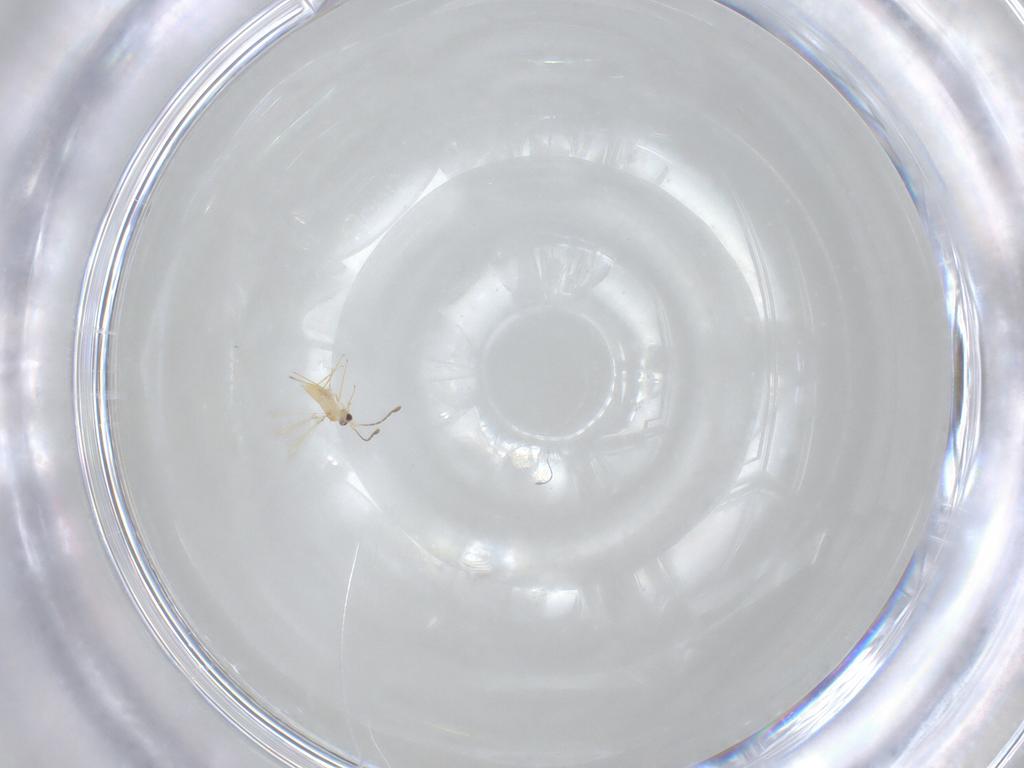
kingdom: Animalia
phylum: Arthropoda
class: Insecta
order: Hymenoptera
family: Mymaridae
